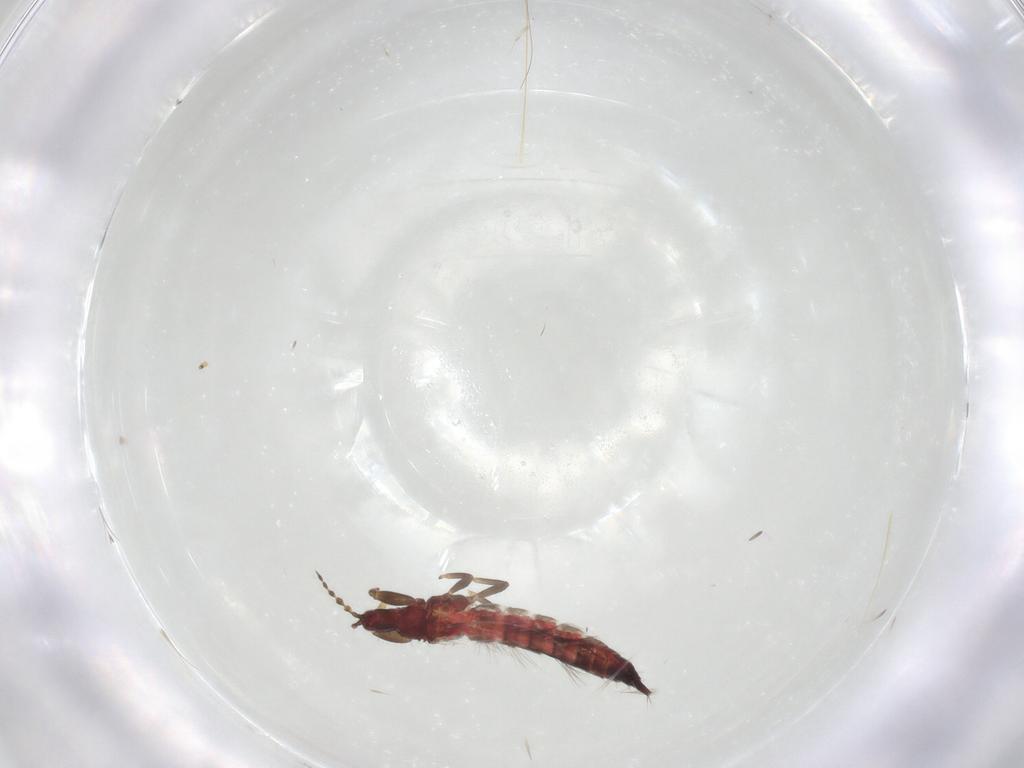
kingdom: Animalia
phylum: Arthropoda
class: Insecta
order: Thysanoptera
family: Phlaeothripidae
